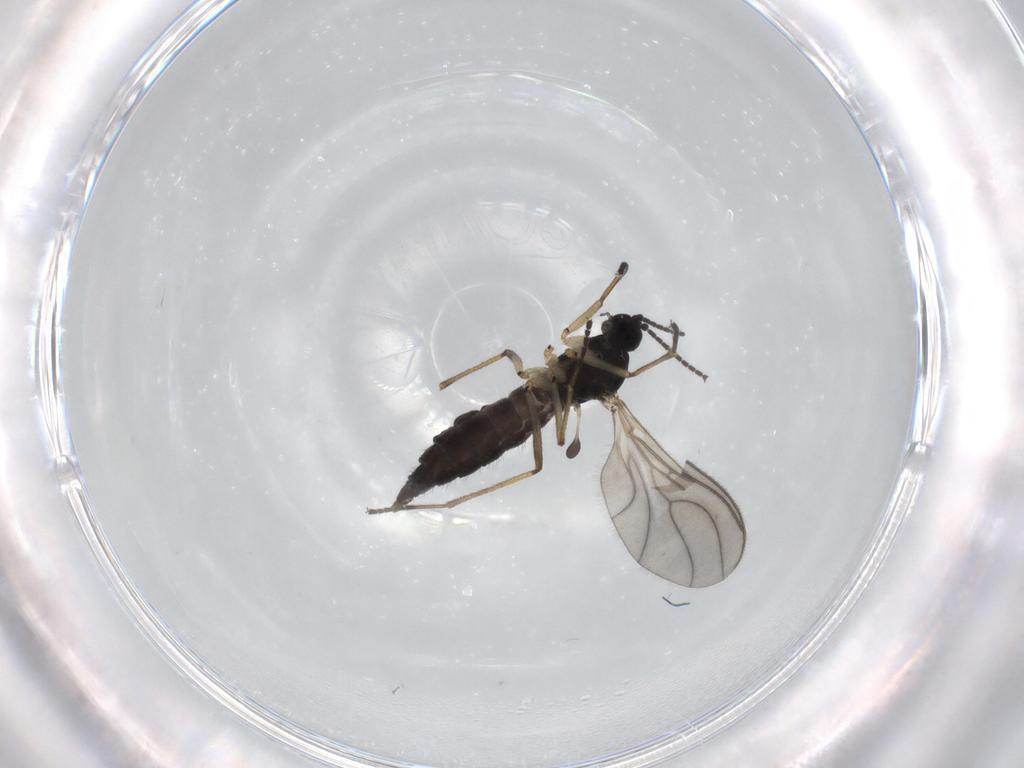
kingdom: Animalia
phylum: Arthropoda
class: Insecta
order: Diptera
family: Sciaridae
